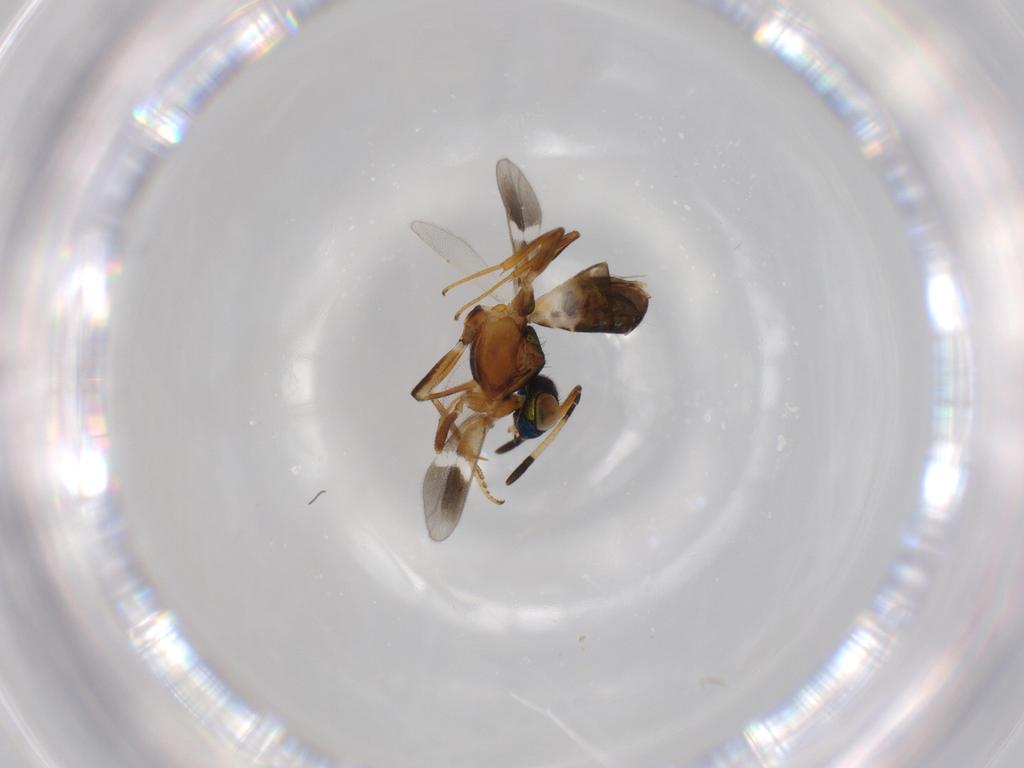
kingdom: Animalia
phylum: Arthropoda
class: Insecta
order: Hymenoptera
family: Eupelmidae
